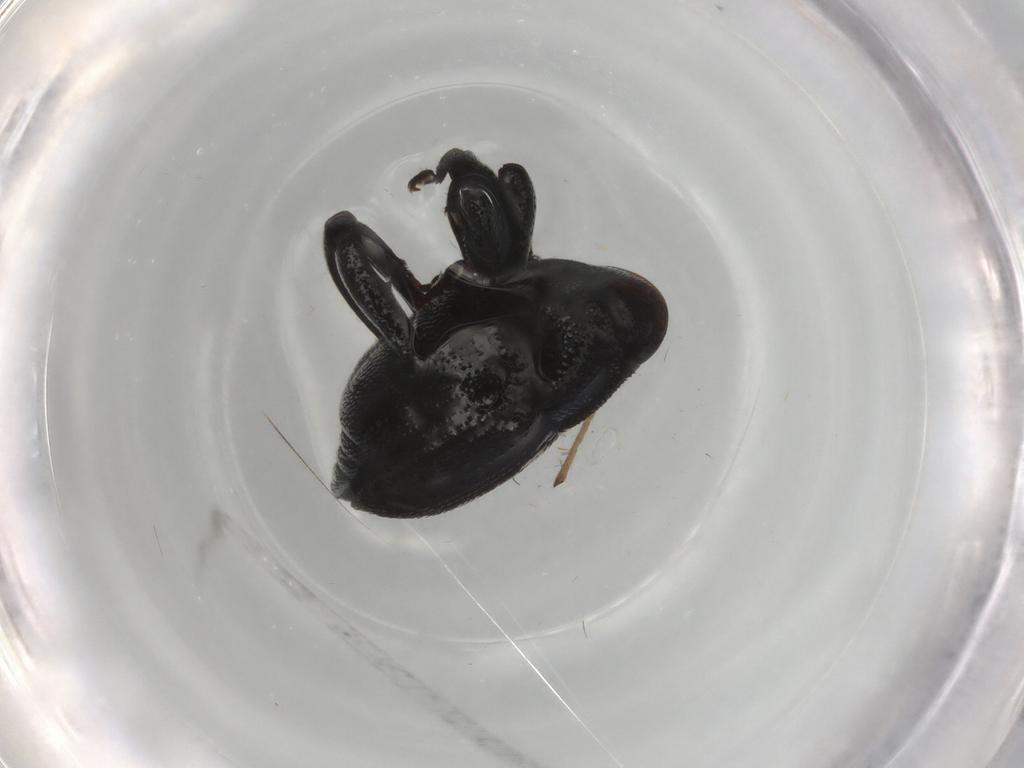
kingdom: Animalia
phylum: Arthropoda
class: Insecta
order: Coleoptera
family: Curculionidae
